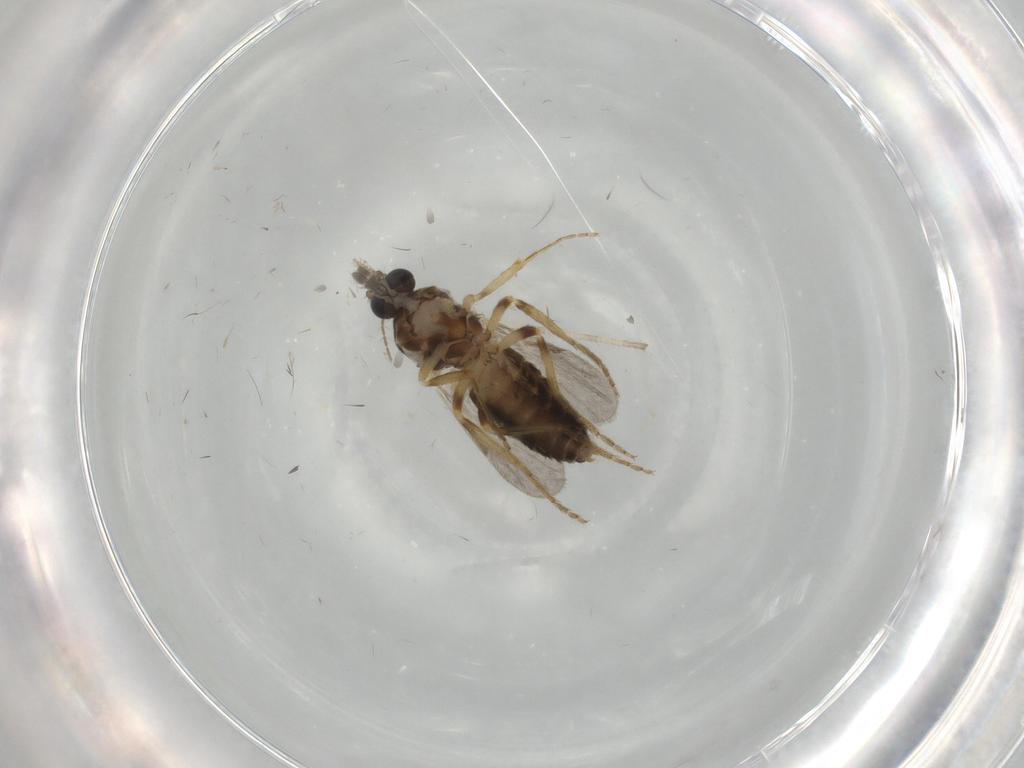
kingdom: Animalia
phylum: Arthropoda
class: Insecta
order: Diptera
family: Ceratopogonidae
